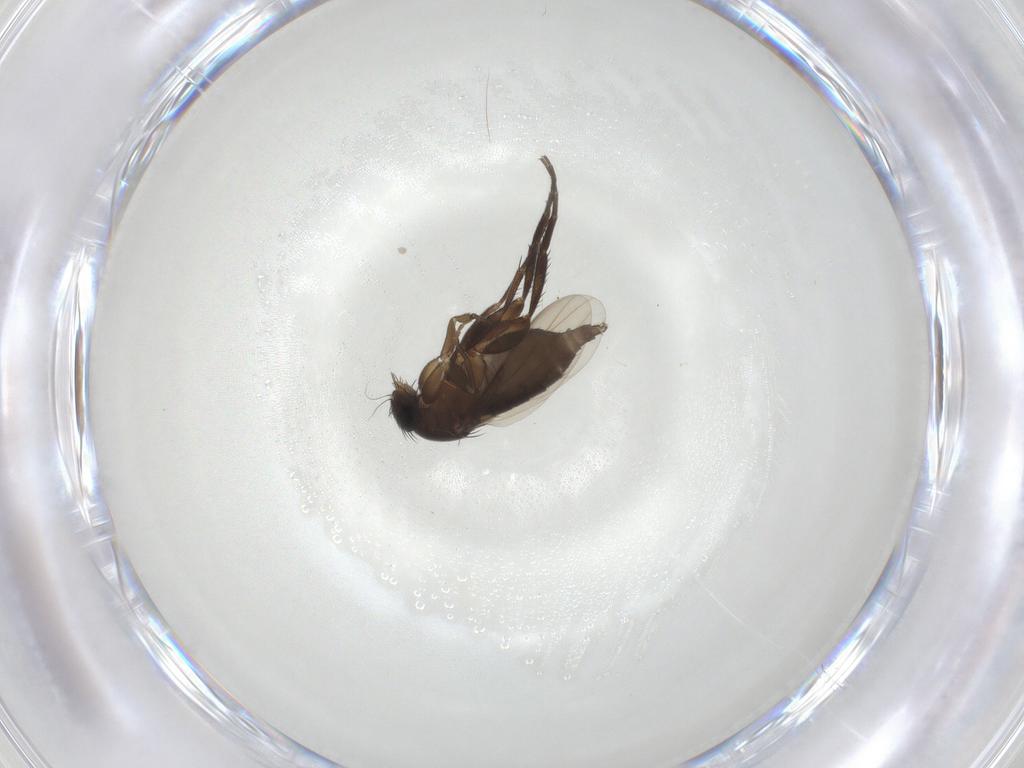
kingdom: Animalia
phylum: Arthropoda
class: Insecta
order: Diptera
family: Phoridae
